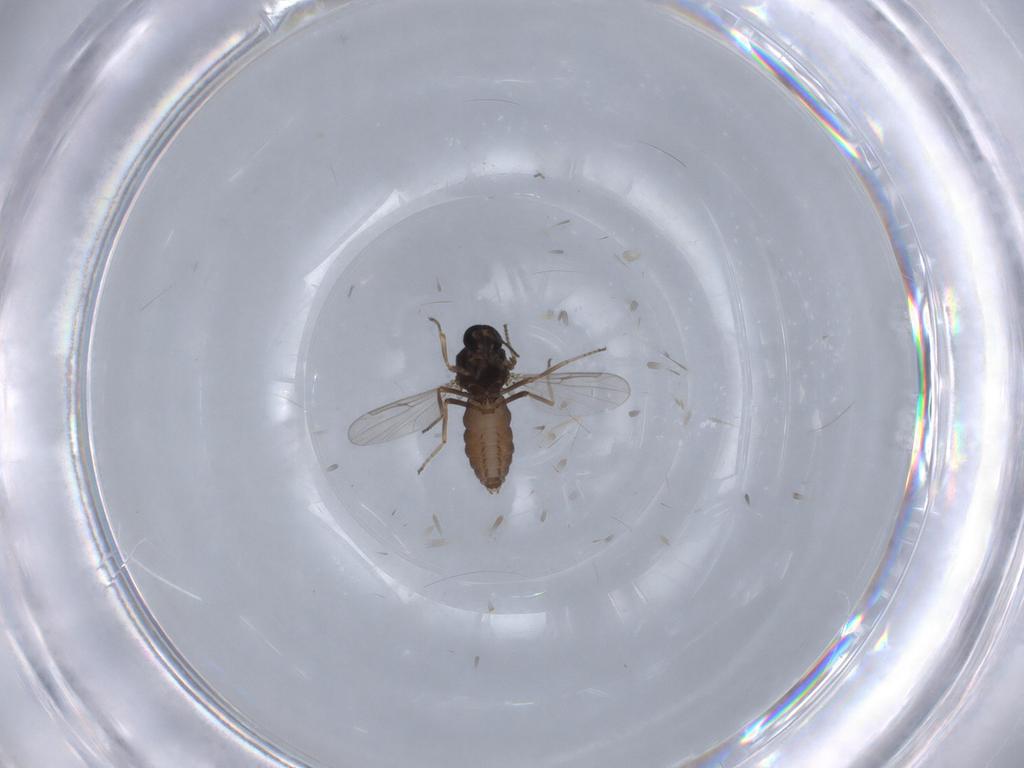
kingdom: Animalia
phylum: Arthropoda
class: Insecta
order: Diptera
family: Ceratopogonidae
